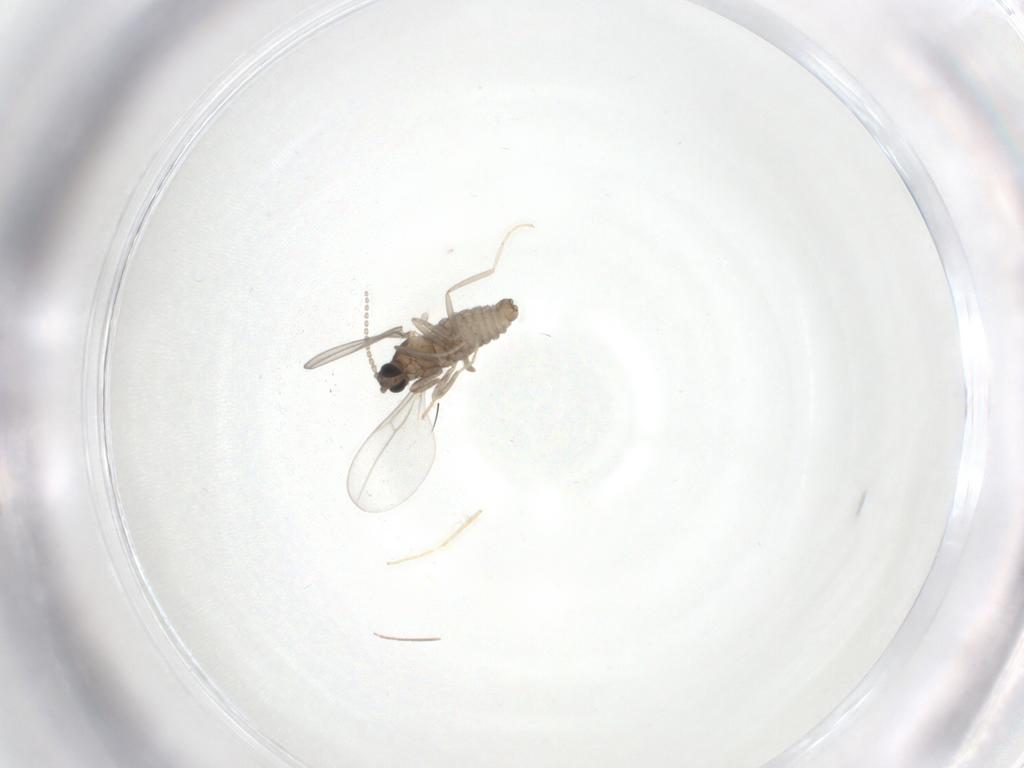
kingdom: Animalia
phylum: Arthropoda
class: Insecta
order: Diptera
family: Cecidomyiidae
